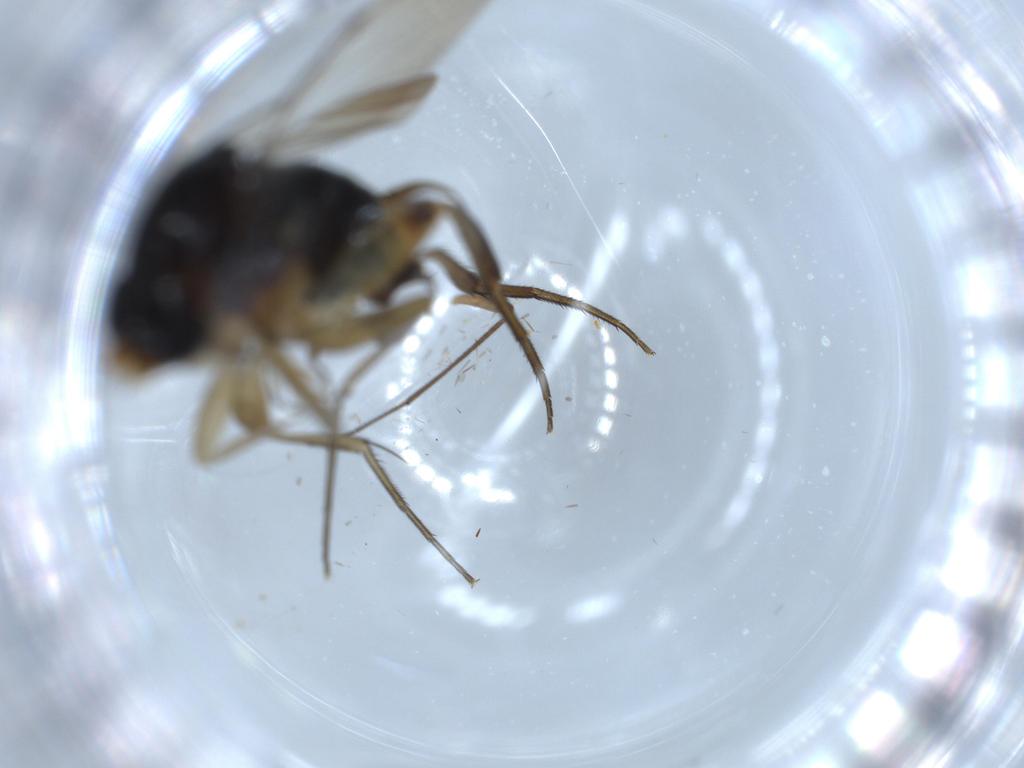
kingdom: Animalia
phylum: Arthropoda
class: Insecta
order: Diptera
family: Phoridae
